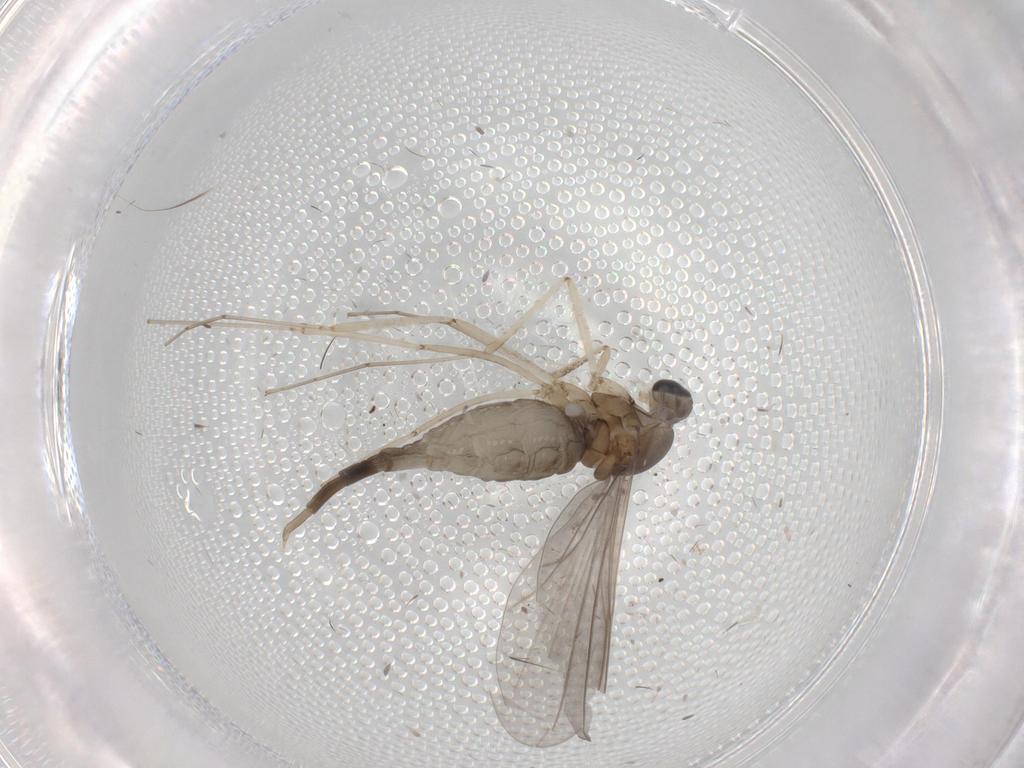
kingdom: Animalia
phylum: Arthropoda
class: Insecta
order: Diptera
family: Cecidomyiidae
